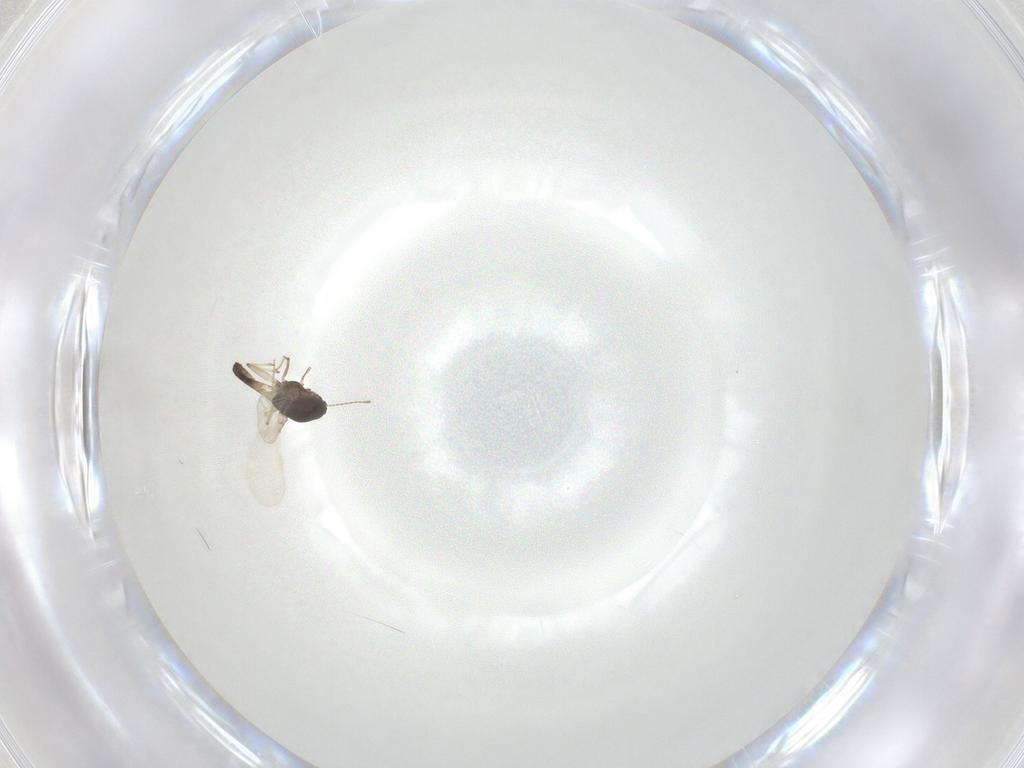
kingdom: Animalia
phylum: Arthropoda
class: Insecta
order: Diptera
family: Chironomidae
